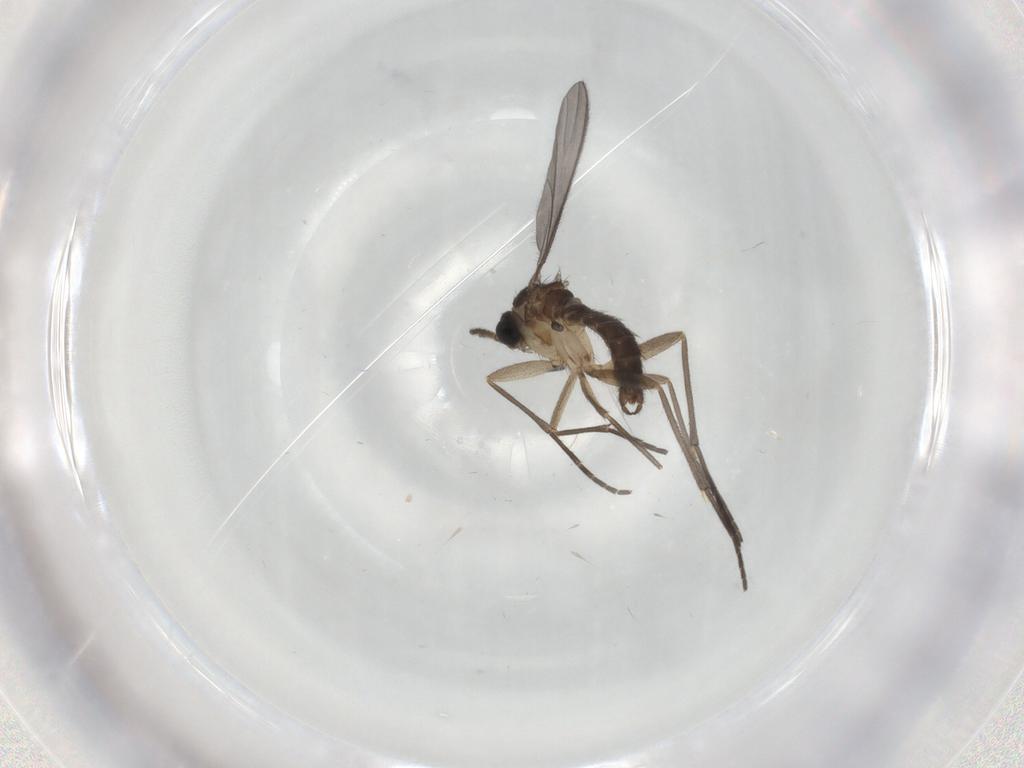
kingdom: Animalia
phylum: Arthropoda
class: Insecta
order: Diptera
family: Sciaridae
